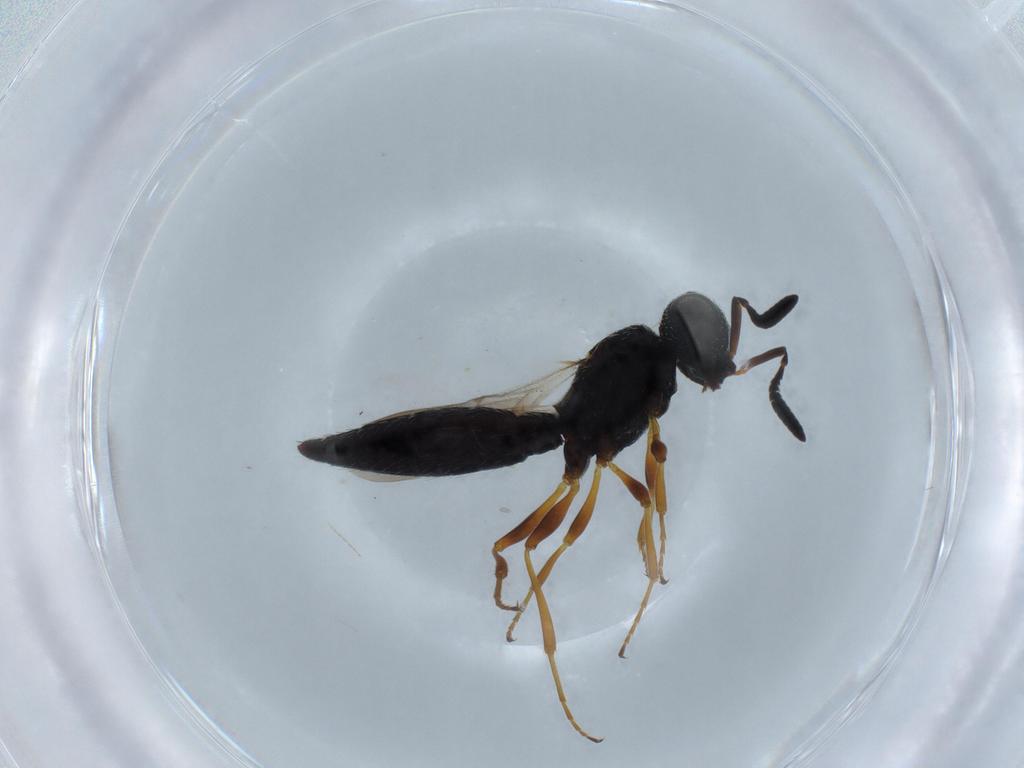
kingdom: Animalia
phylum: Arthropoda
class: Insecta
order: Hymenoptera
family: Scelionidae
